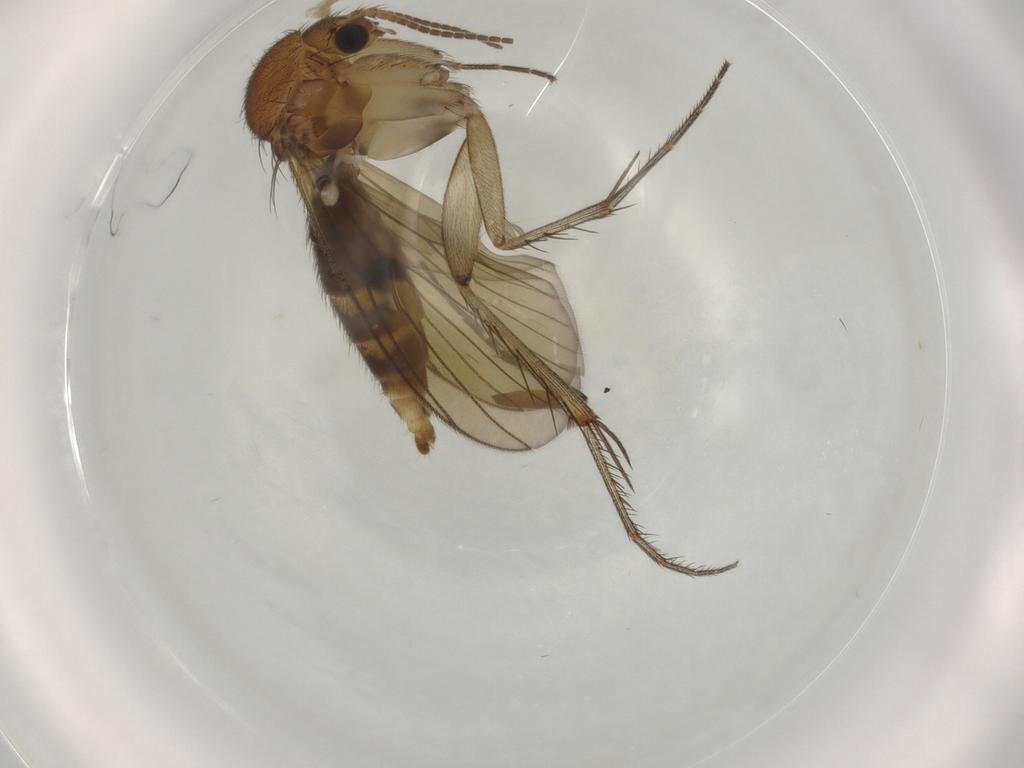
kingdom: Animalia
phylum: Arthropoda
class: Insecta
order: Diptera
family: Mycetophilidae
